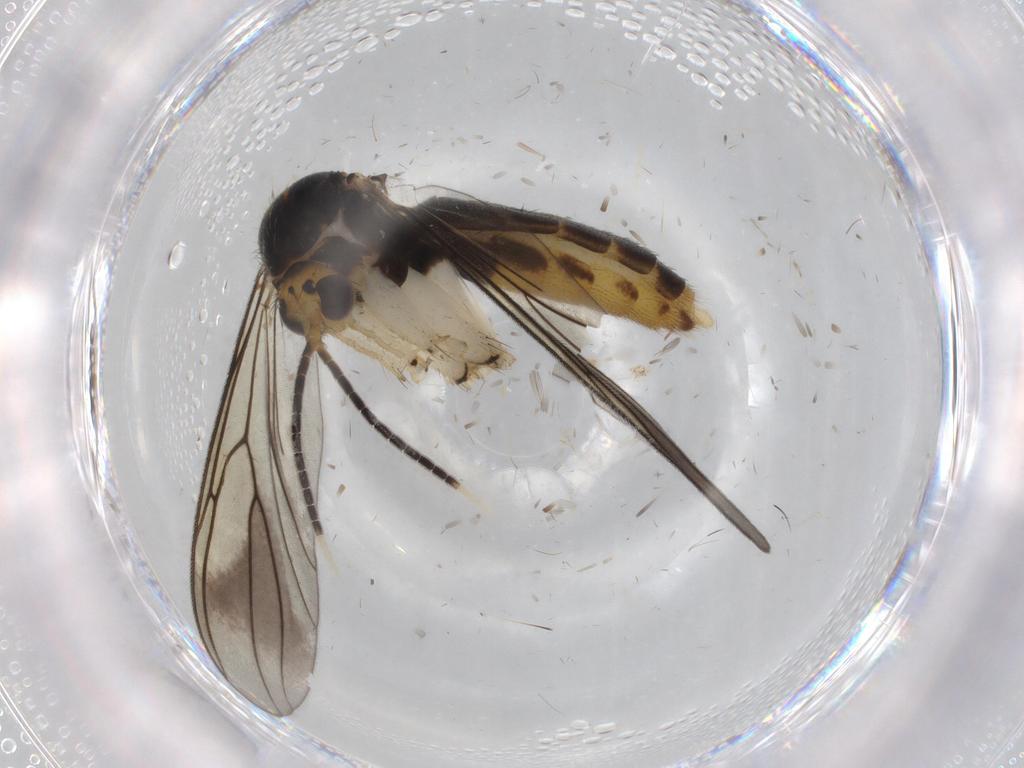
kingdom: Animalia
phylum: Arthropoda
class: Insecta
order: Diptera
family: Mycetophilidae
